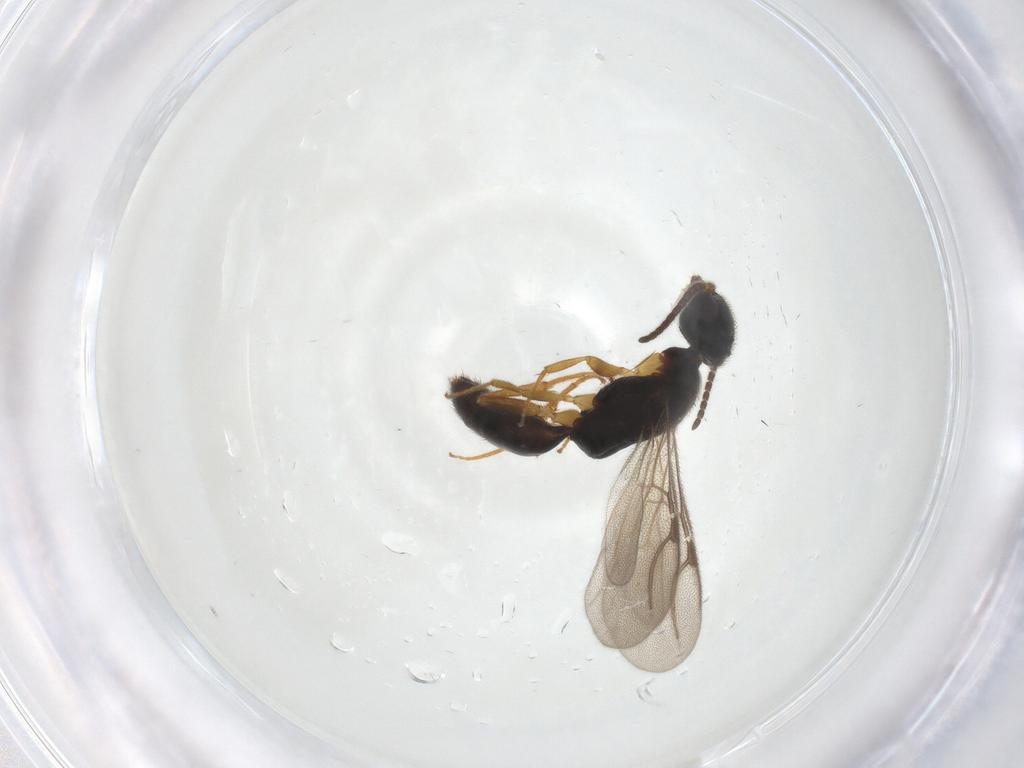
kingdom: Animalia
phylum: Arthropoda
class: Insecta
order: Hymenoptera
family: Bethylidae
